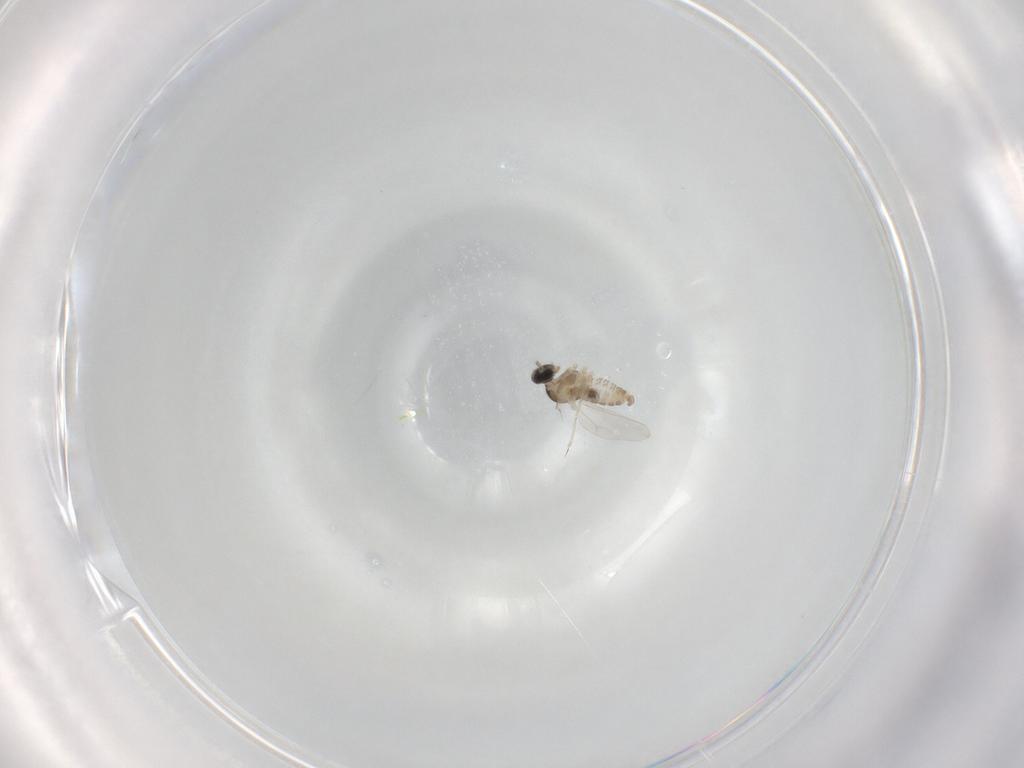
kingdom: Animalia
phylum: Arthropoda
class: Insecta
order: Diptera
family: Cecidomyiidae
